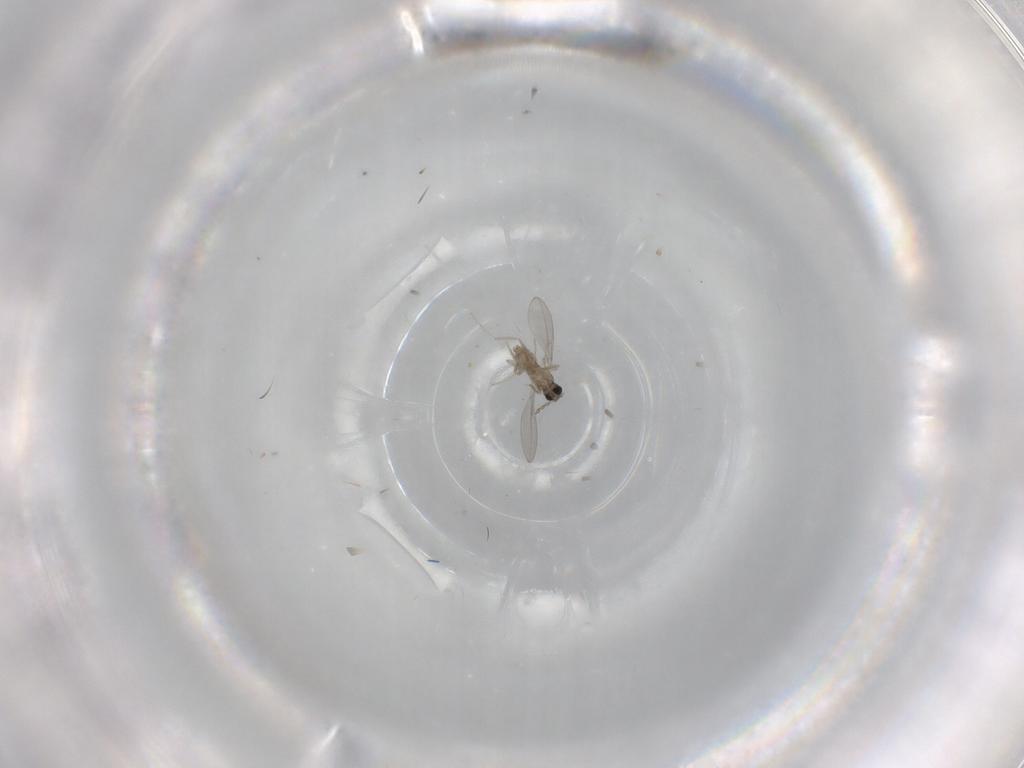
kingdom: Animalia
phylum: Arthropoda
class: Insecta
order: Diptera
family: Cecidomyiidae
